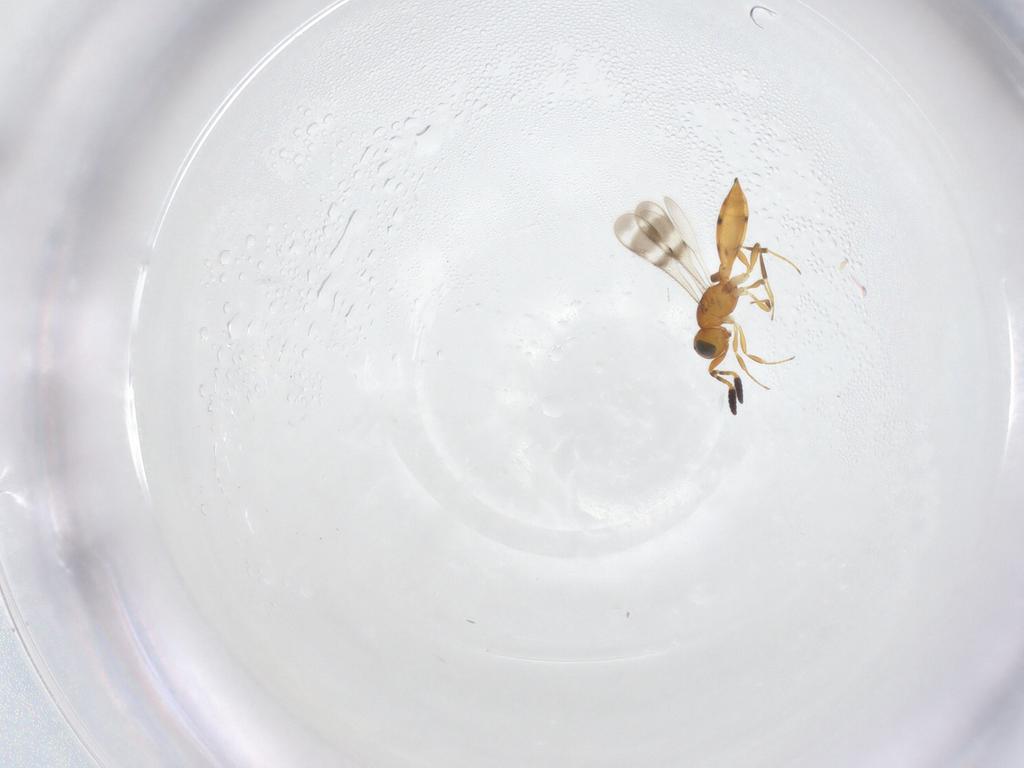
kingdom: Animalia
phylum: Arthropoda
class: Insecta
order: Hymenoptera
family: Scelionidae
